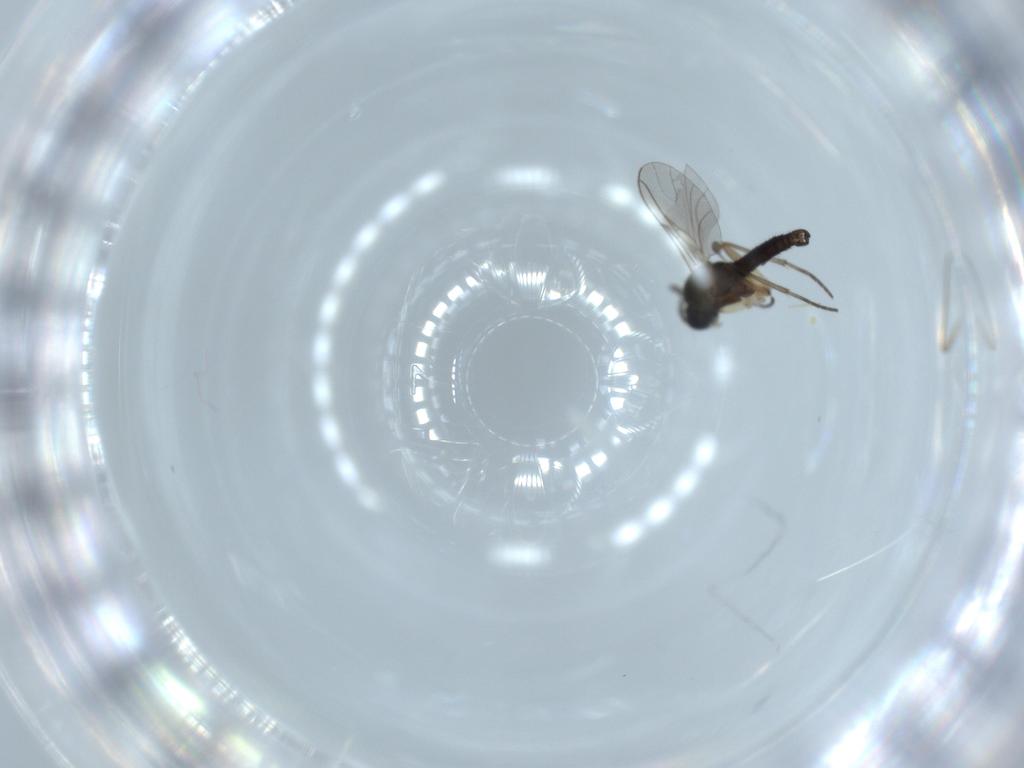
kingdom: Animalia
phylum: Arthropoda
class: Insecta
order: Diptera
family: Sciaridae
